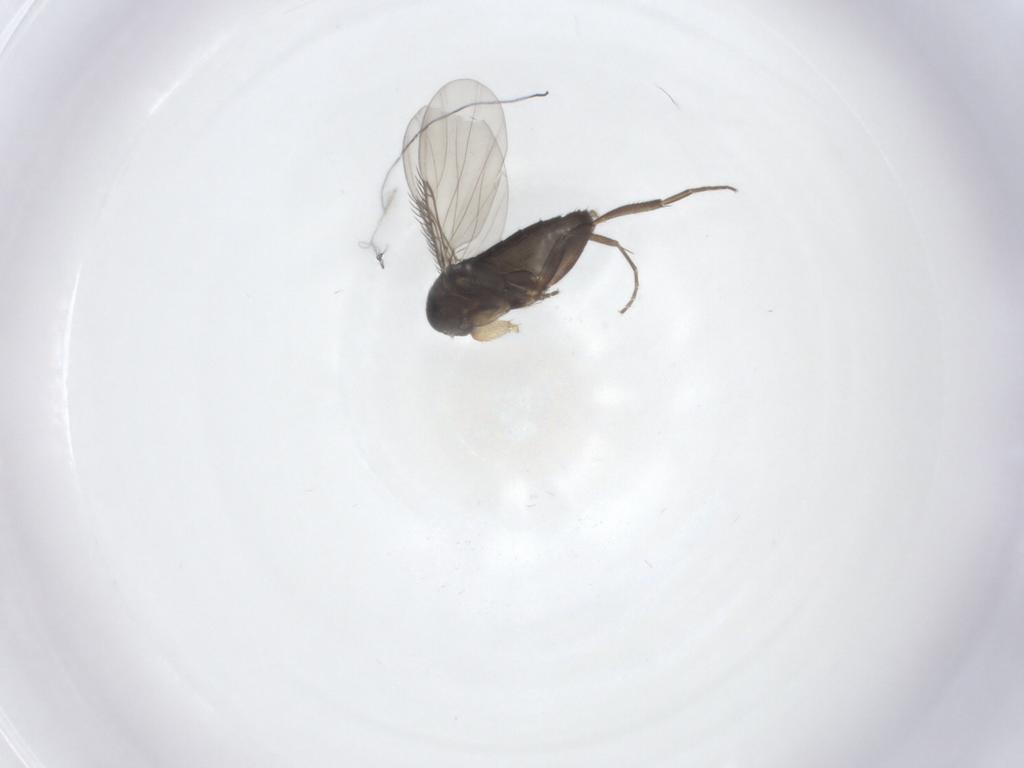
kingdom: Animalia
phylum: Arthropoda
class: Insecta
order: Diptera
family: Phoridae
